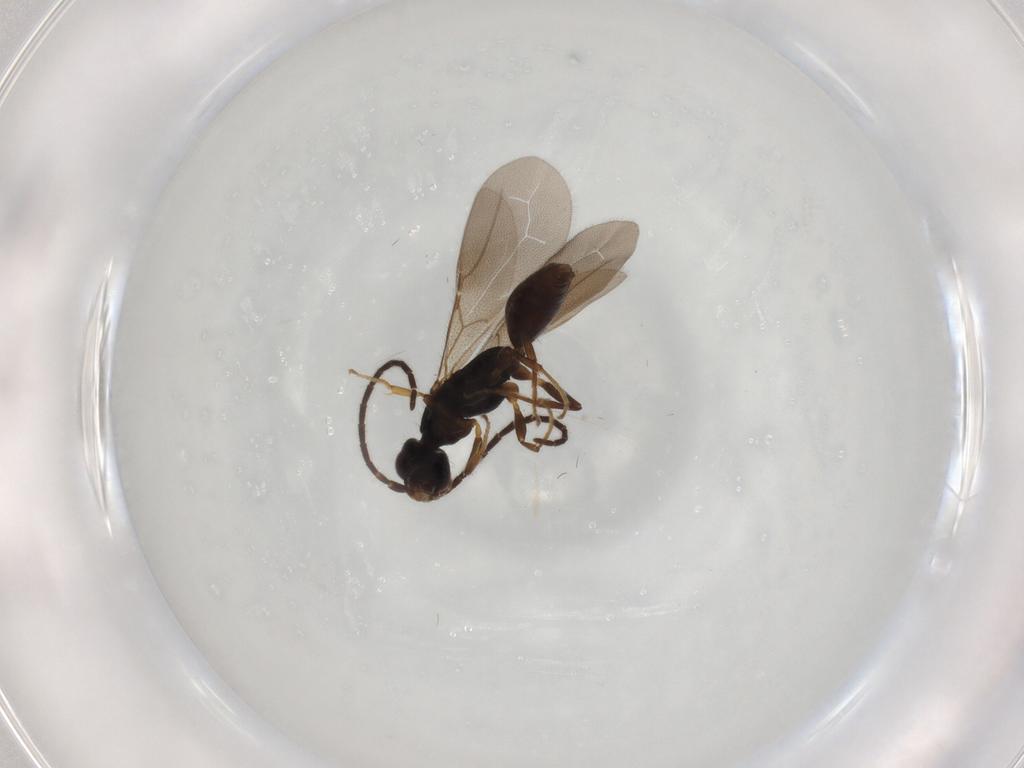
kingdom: Animalia
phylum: Arthropoda
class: Insecta
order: Hymenoptera
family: Bethylidae
